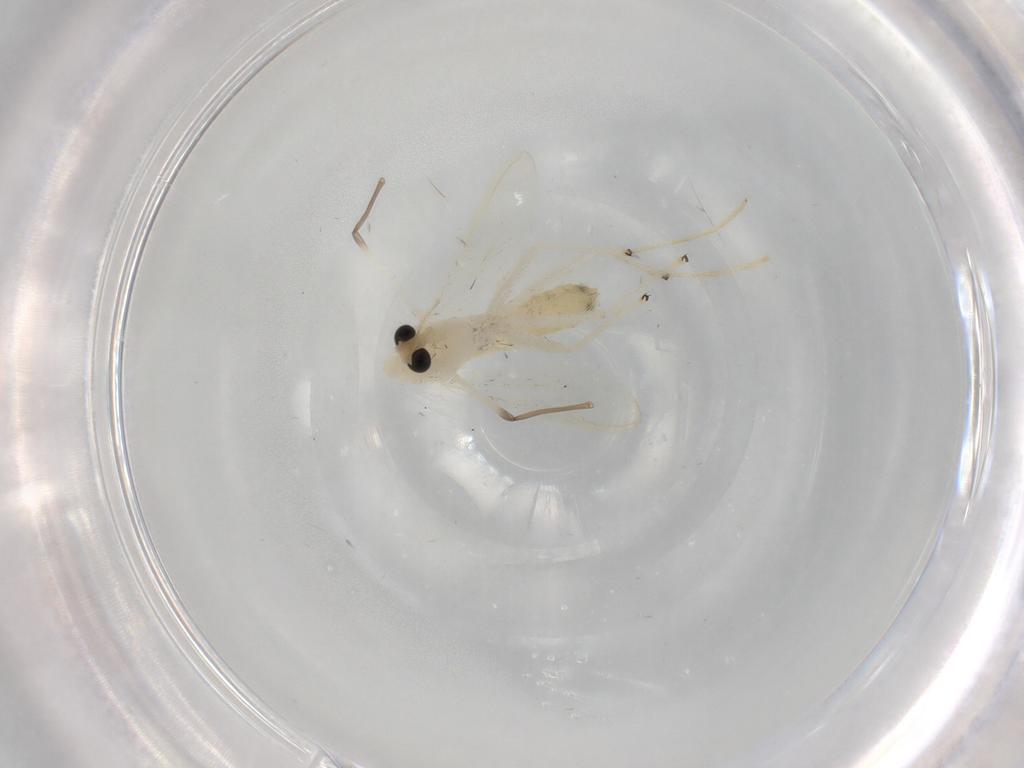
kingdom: Animalia
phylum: Arthropoda
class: Insecta
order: Diptera
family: Chironomidae
